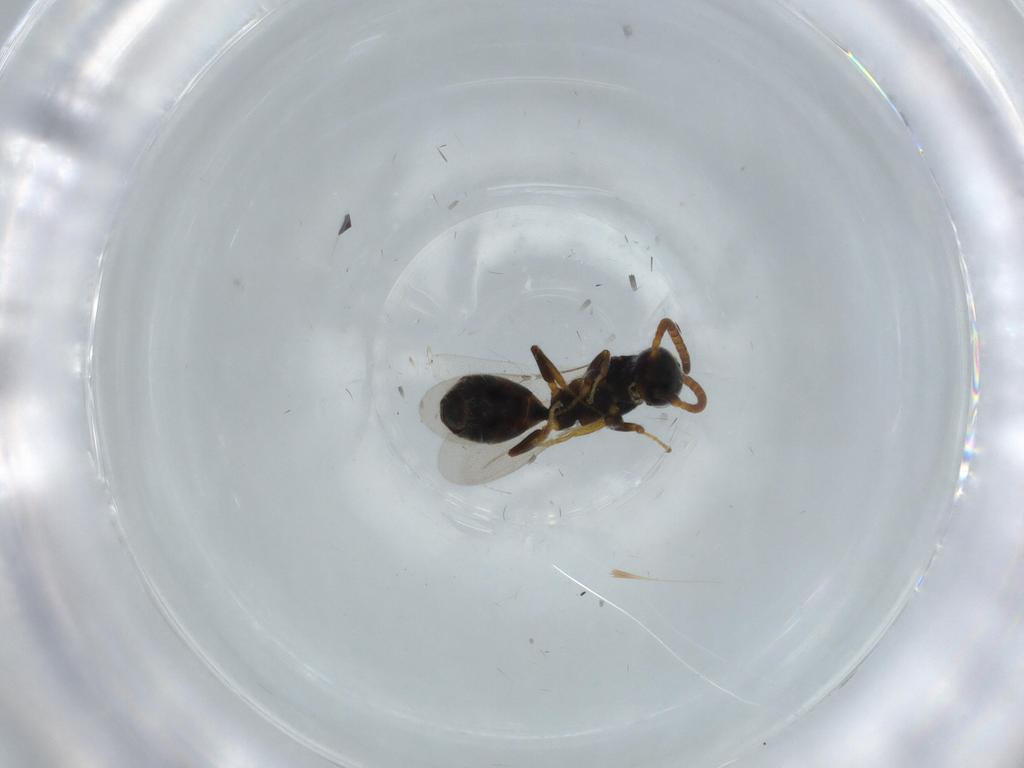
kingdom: Animalia
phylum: Arthropoda
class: Insecta
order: Hymenoptera
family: Bethylidae
